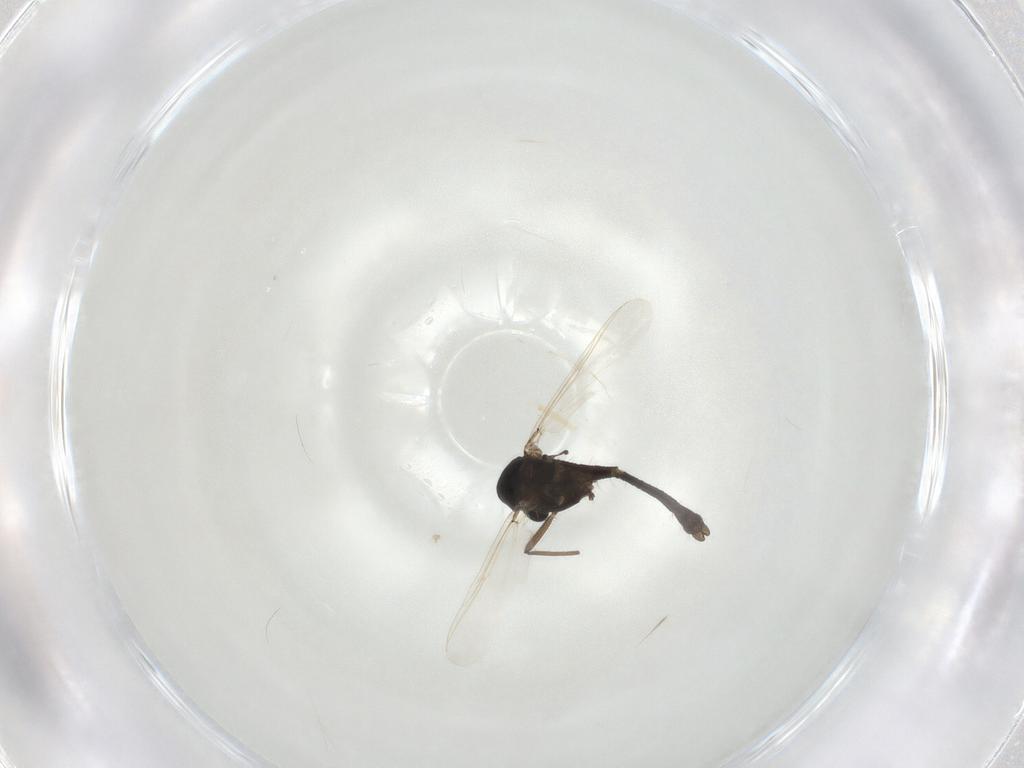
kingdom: Animalia
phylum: Arthropoda
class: Insecta
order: Diptera
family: Chironomidae
